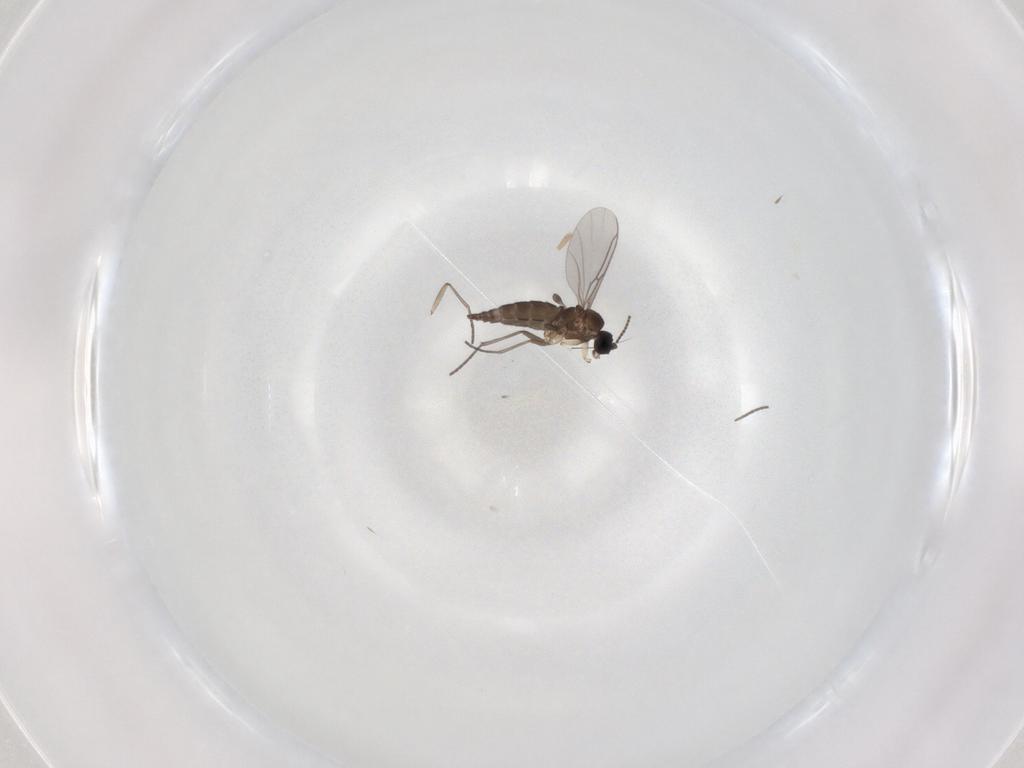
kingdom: Animalia
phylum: Arthropoda
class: Insecta
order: Diptera
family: Sciaridae
